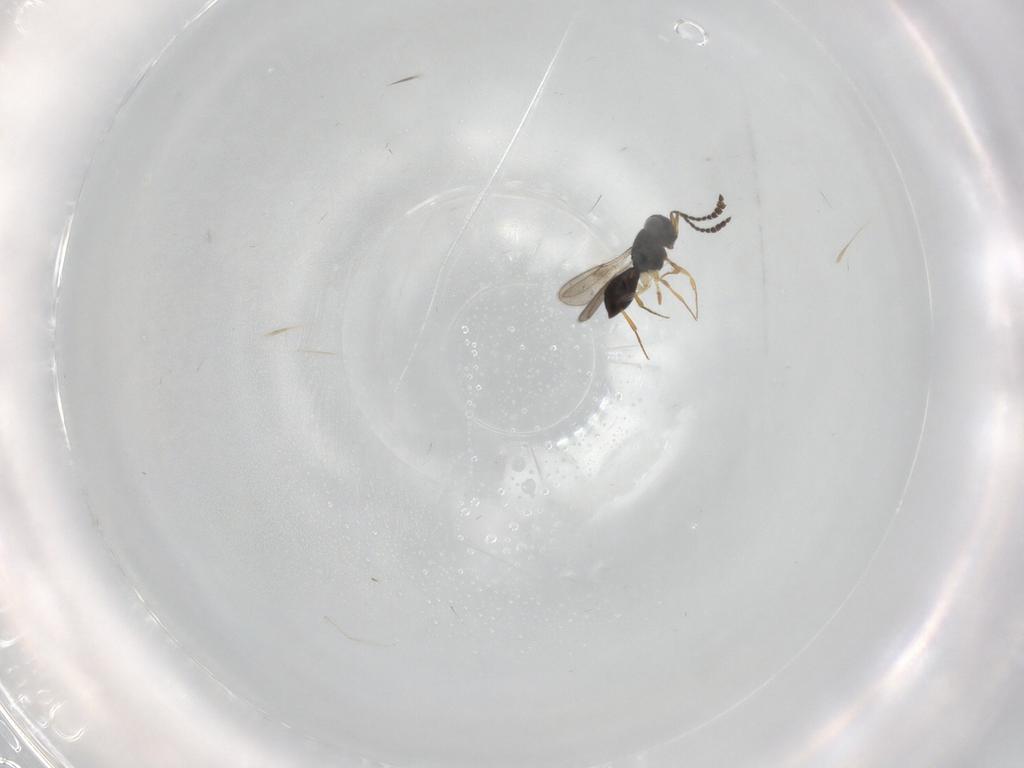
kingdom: Animalia
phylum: Arthropoda
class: Insecta
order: Hymenoptera
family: Scelionidae
